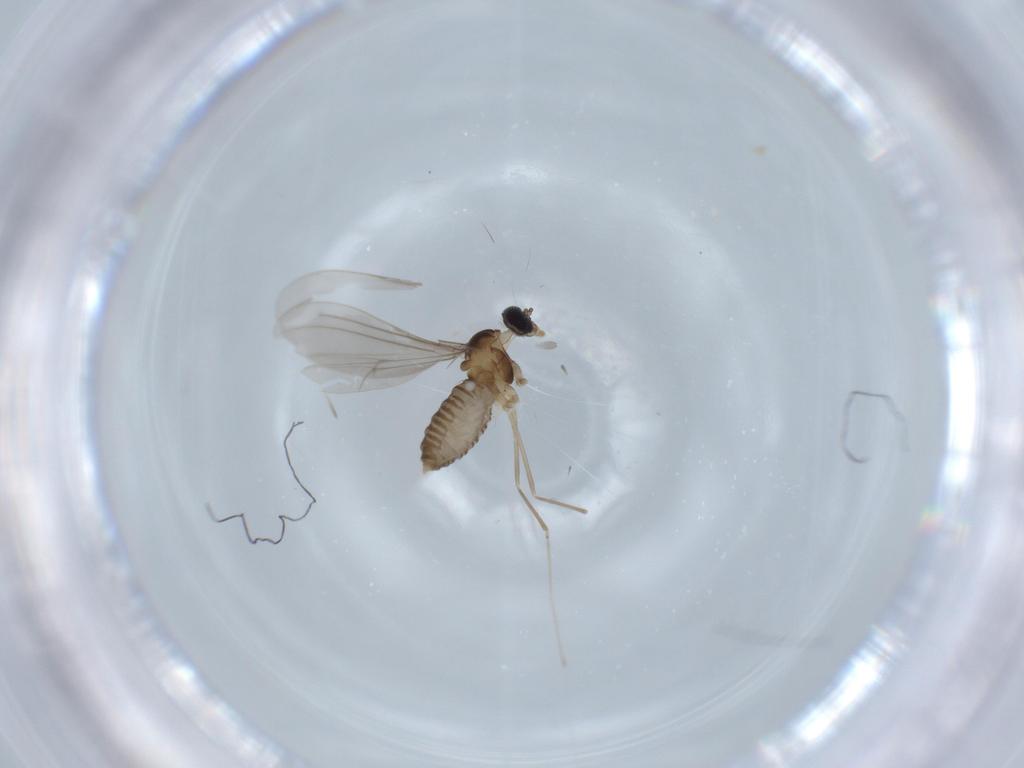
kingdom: Animalia
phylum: Arthropoda
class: Insecta
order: Diptera
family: Cecidomyiidae
